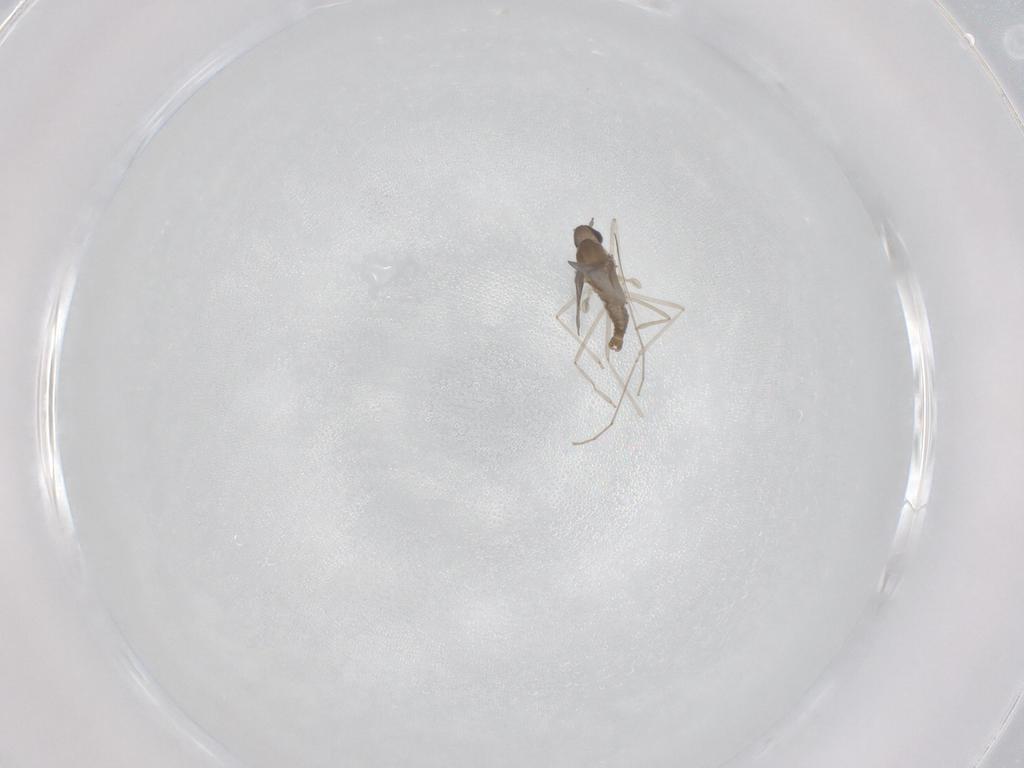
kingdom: Animalia
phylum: Arthropoda
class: Insecta
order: Diptera
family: Cecidomyiidae
